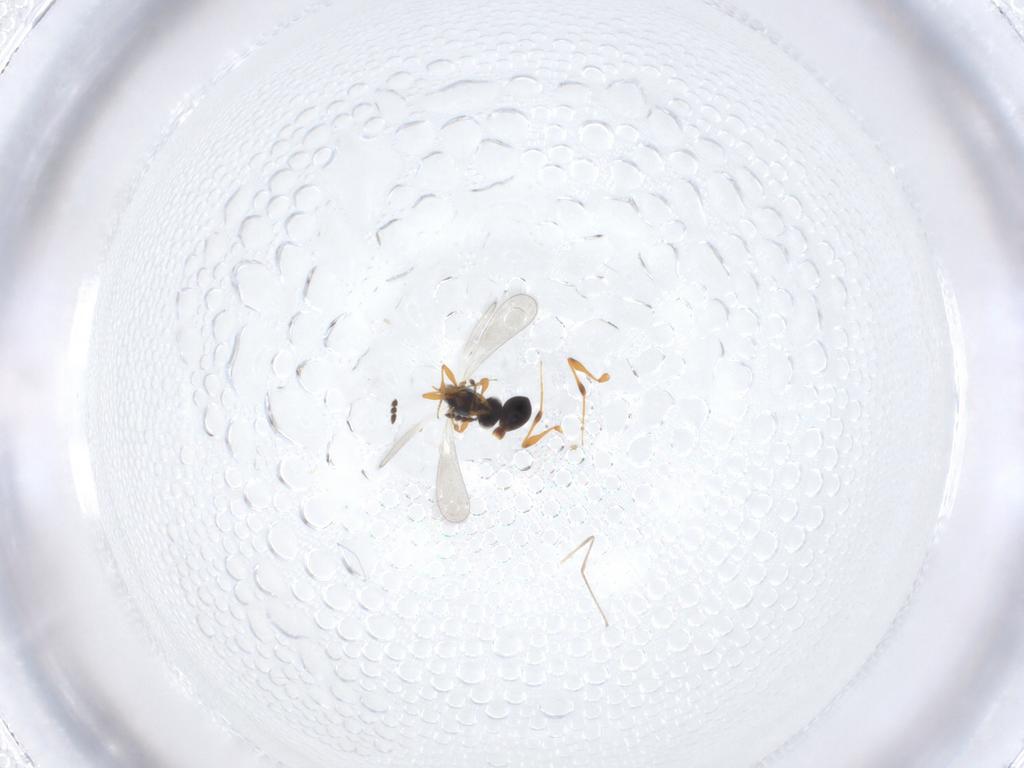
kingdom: Animalia
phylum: Arthropoda
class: Insecta
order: Hymenoptera
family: Platygastridae
